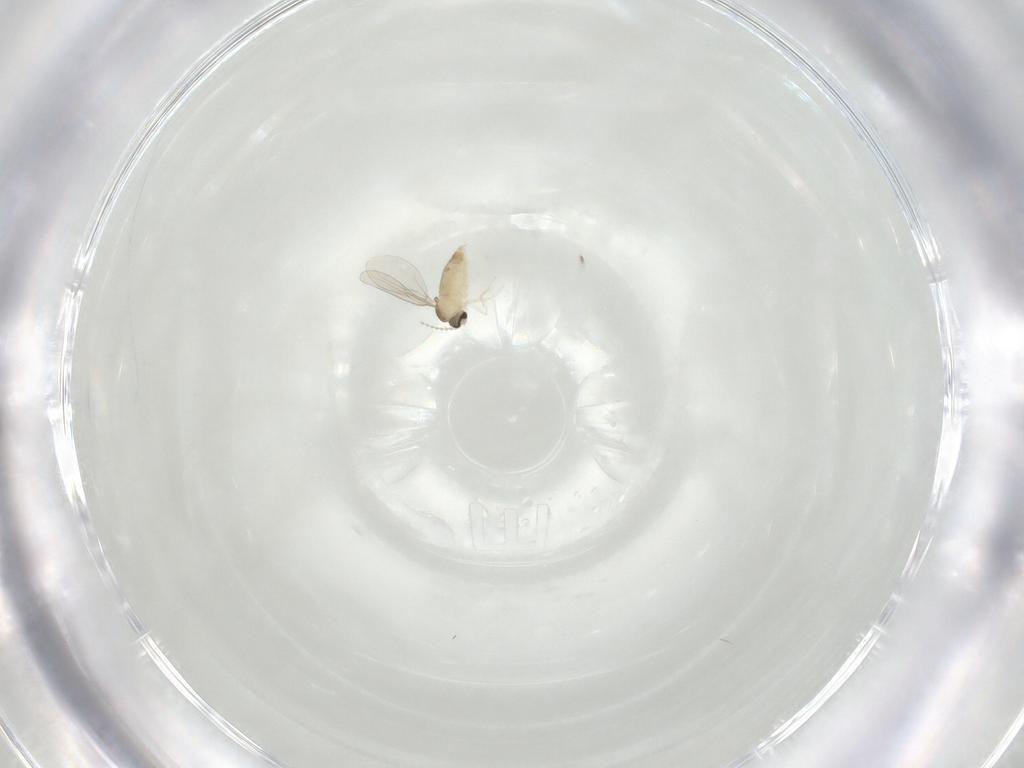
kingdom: Animalia
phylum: Arthropoda
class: Insecta
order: Diptera
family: Cecidomyiidae
